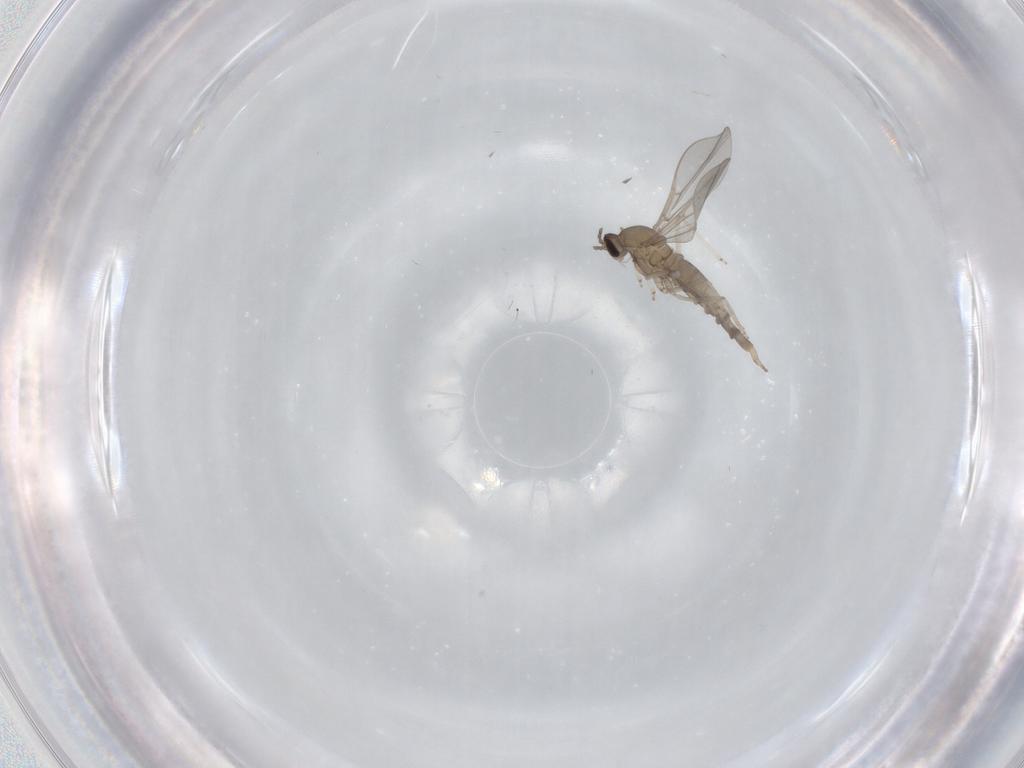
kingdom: Animalia
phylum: Arthropoda
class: Insecta
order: Diptera
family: Cecidomyiidae
